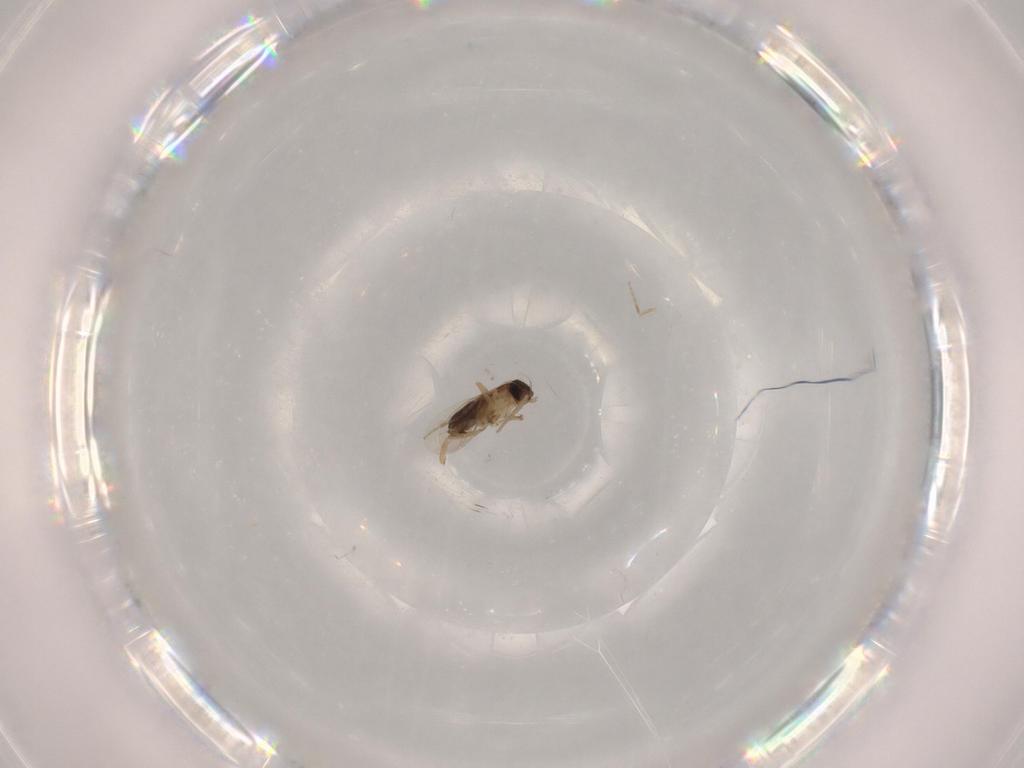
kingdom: Animalia
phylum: Arthropoda
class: Insecta
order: Diptera
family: Phoridae
